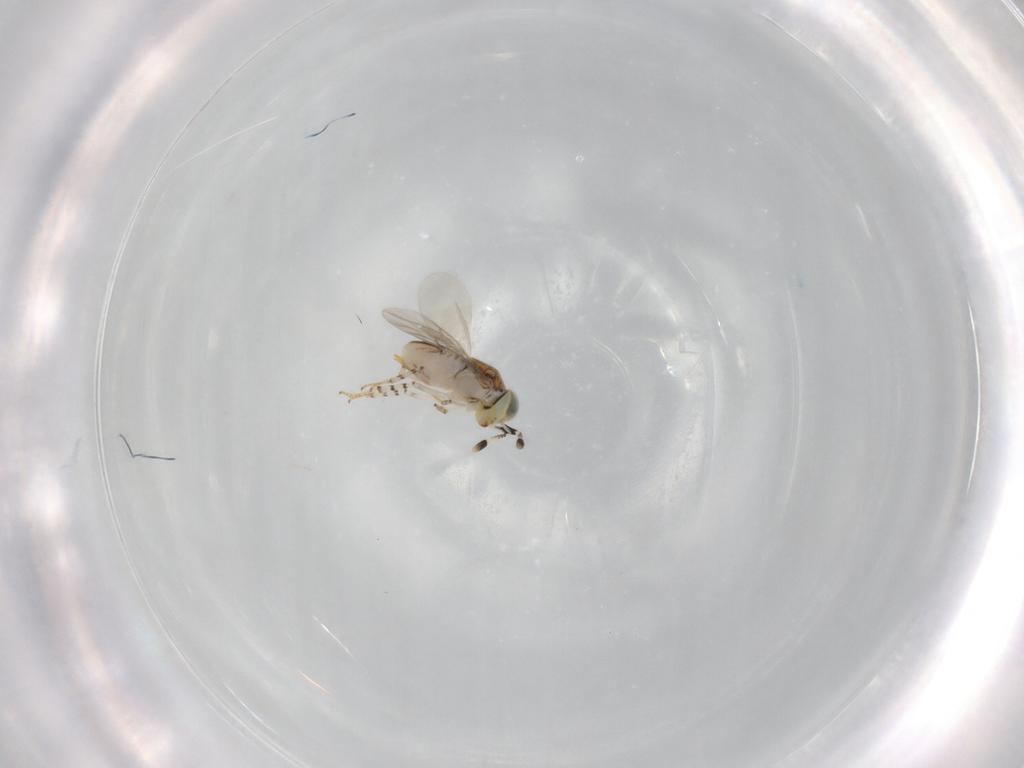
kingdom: Animalia
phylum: Arthropoda
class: Insecta
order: Hymenoptera
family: Encyrtidae
